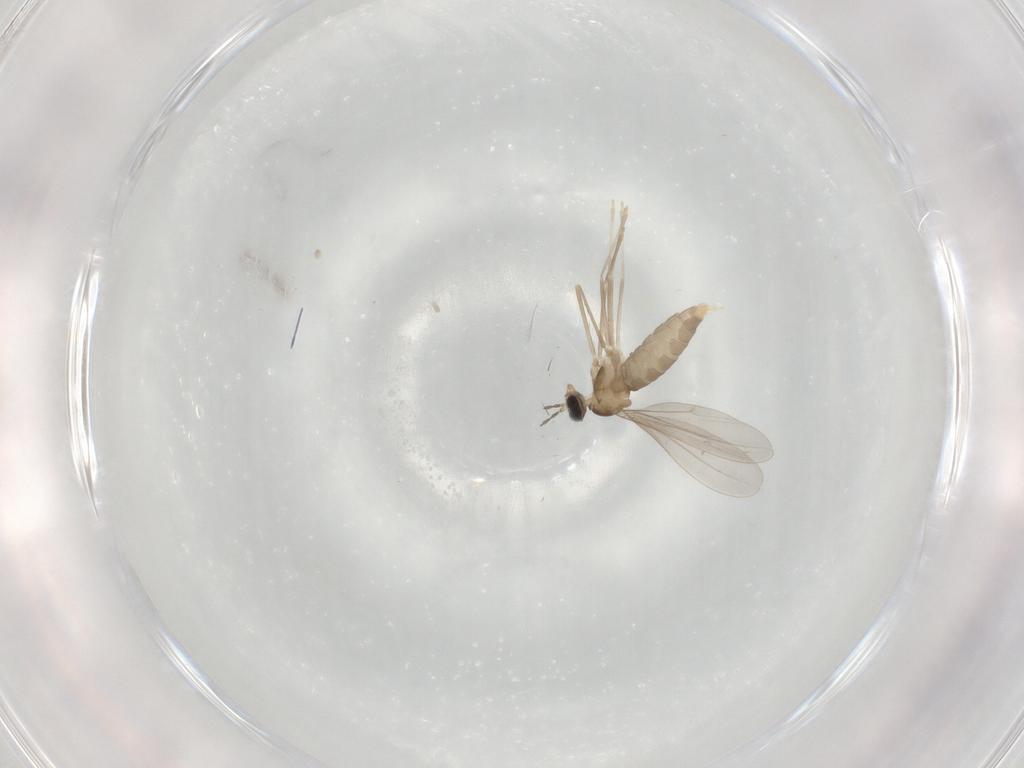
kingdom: Animalia
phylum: Arthropoda
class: Insecta
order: Diptera
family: Cecidomyiidae
